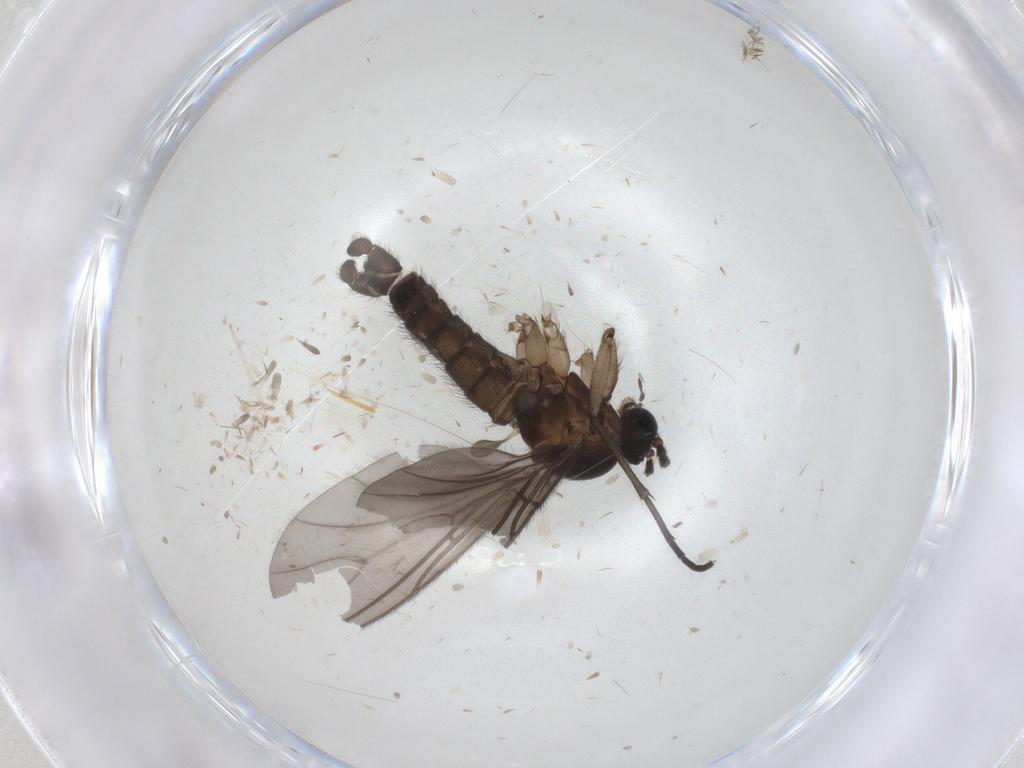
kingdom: Animalia
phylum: Arthropoda
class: Insecta
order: Diptera
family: Sciaridae
